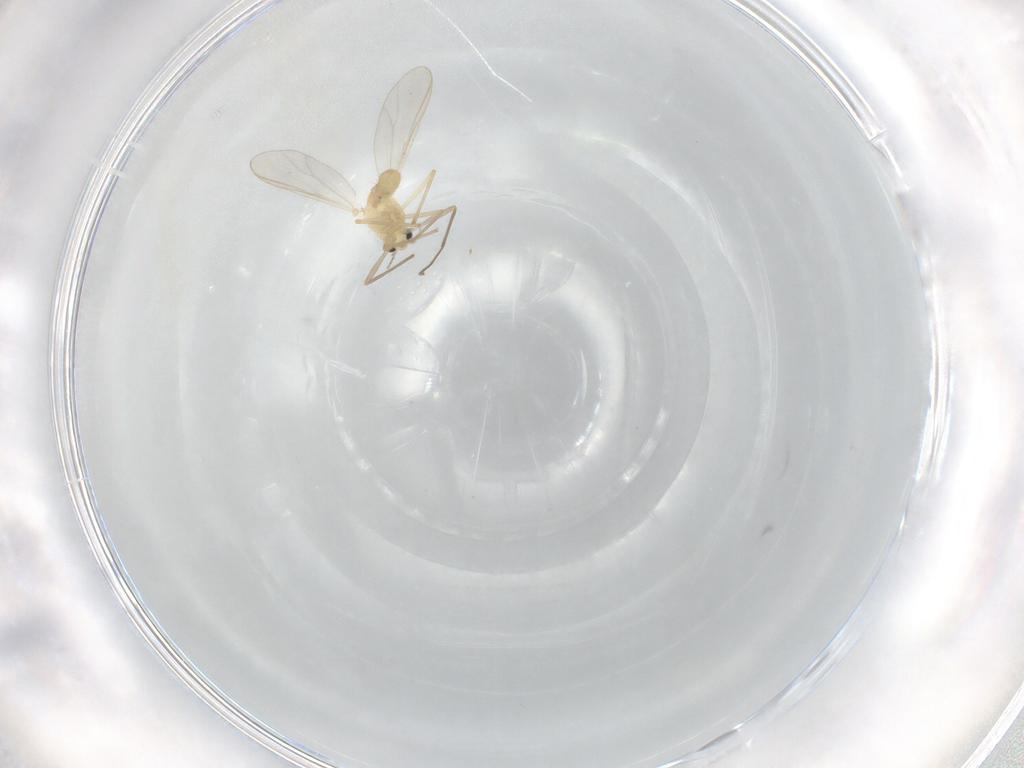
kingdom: Animalia
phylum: Arthropoda
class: Insecta
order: Diptera
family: Chironomidae
